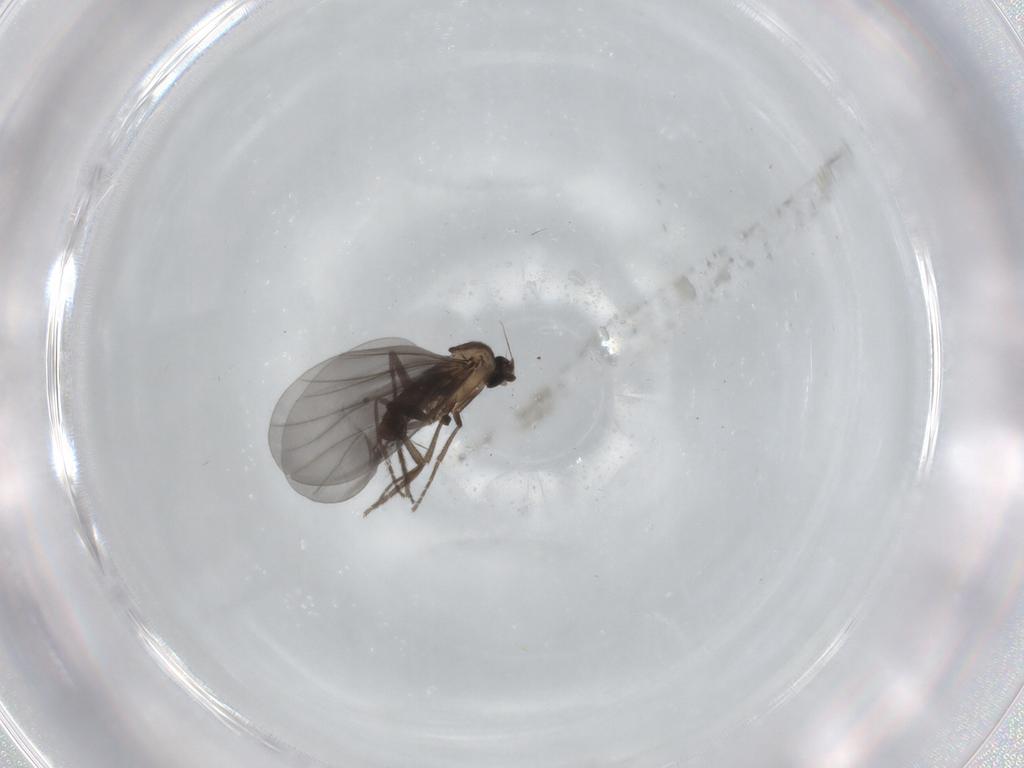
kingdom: Animalia
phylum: Arthropoda
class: Insecta
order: Diptera
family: Phoridae
